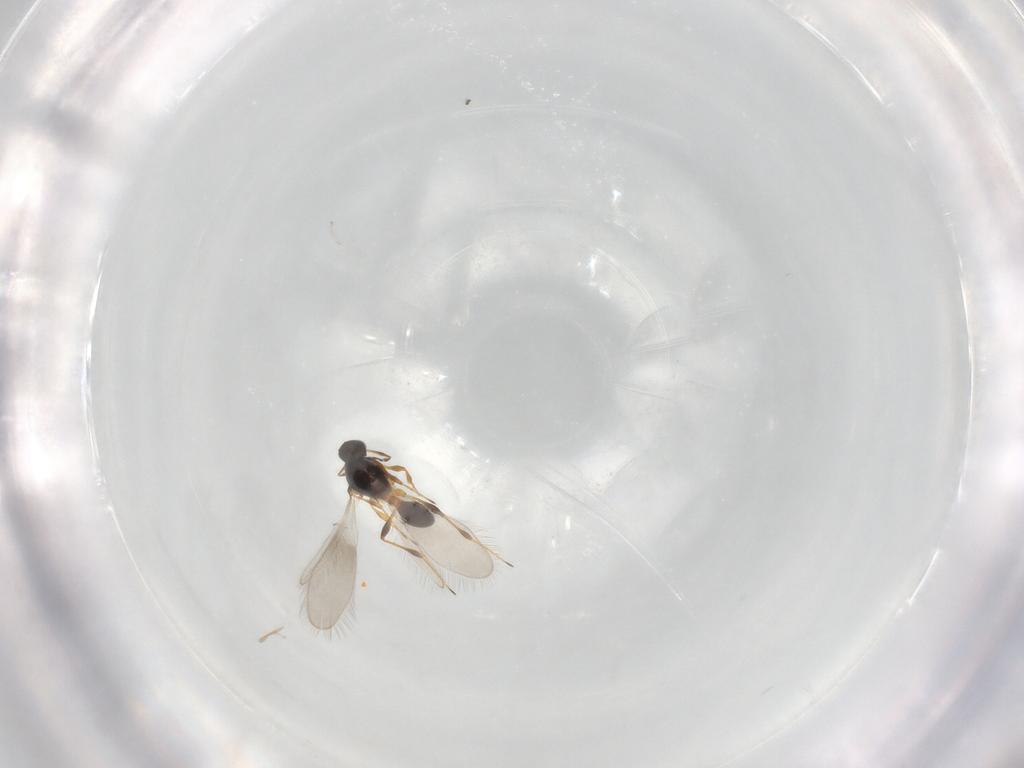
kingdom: Animalia
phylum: Arthropoda
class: Insecta
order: Hymenoptera
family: Platygastridae
